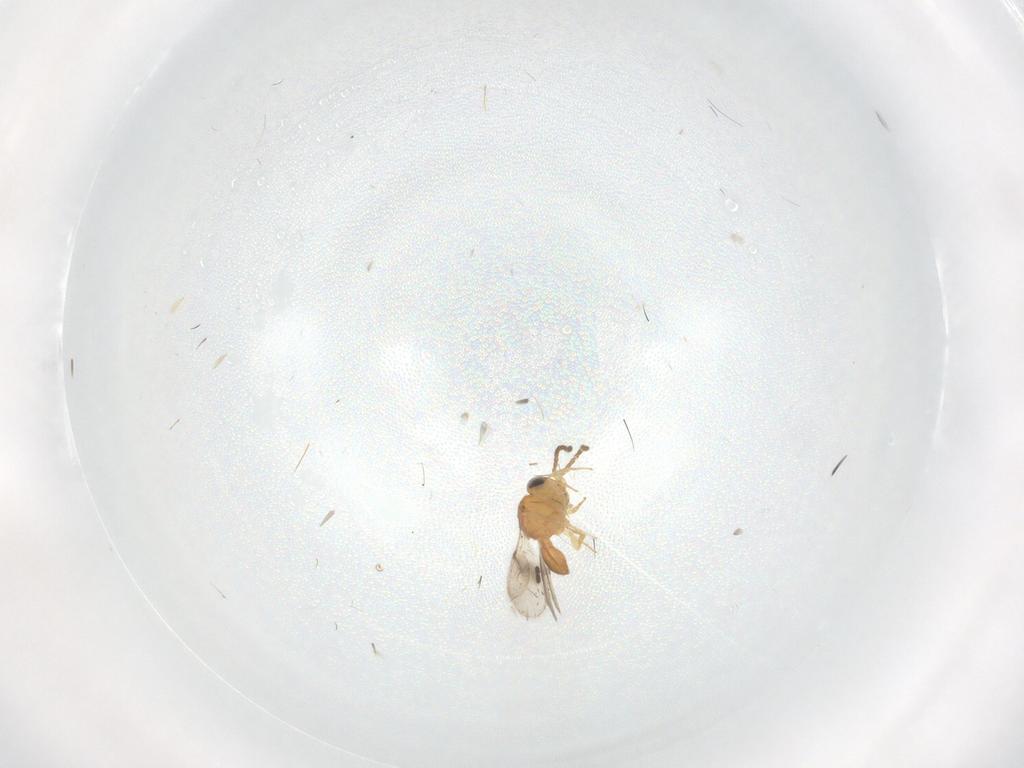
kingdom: Animalia
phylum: Arthropoda
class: Insecta
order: Hymenoptera
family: Scelionidae
